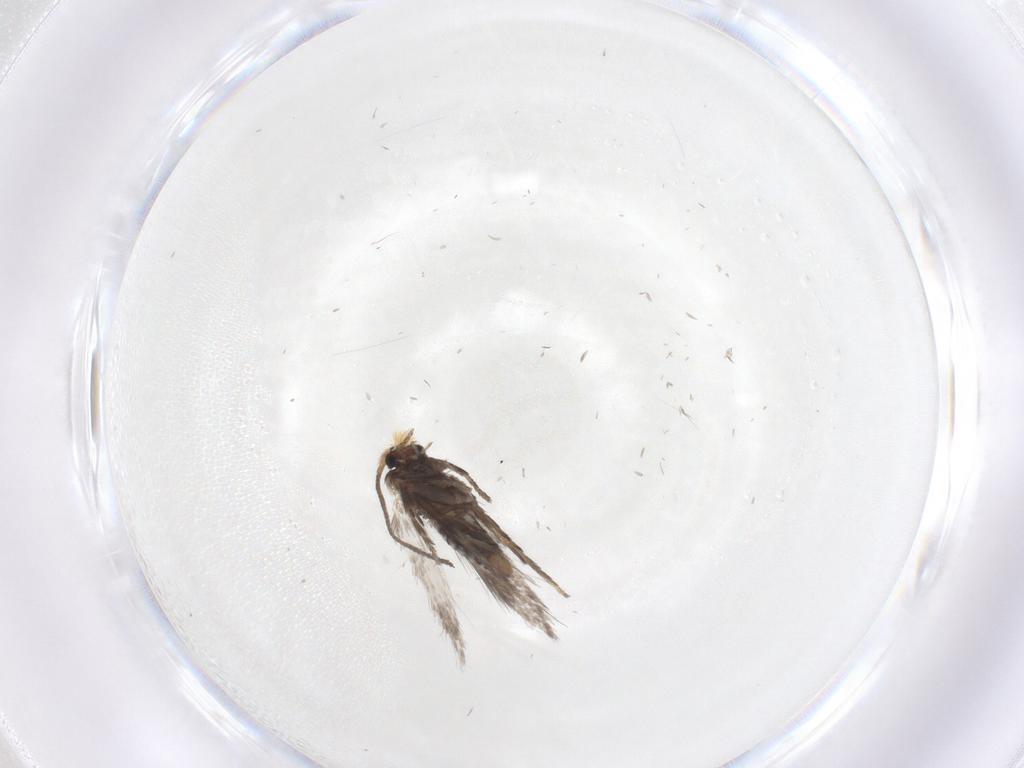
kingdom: Animalia
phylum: Arthropoda
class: Insecta
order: Lepidoptera
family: Nepticulidae
